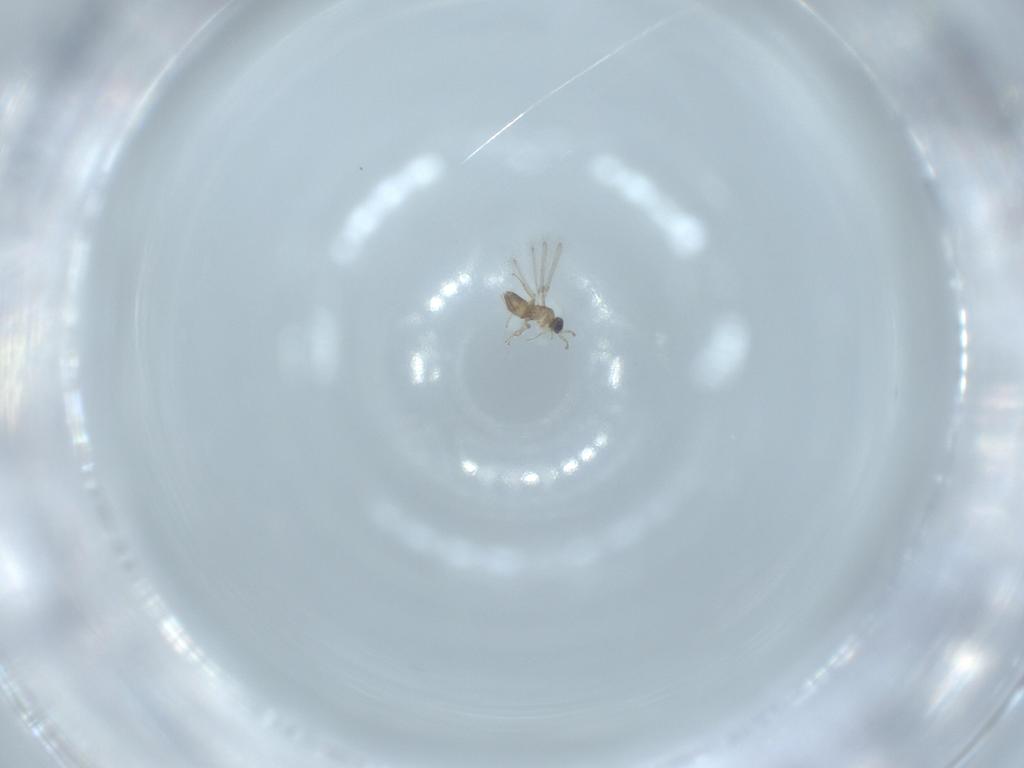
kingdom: Animalia
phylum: Arthropoda
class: Insecta
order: Hymenoptera
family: Mymaridae
